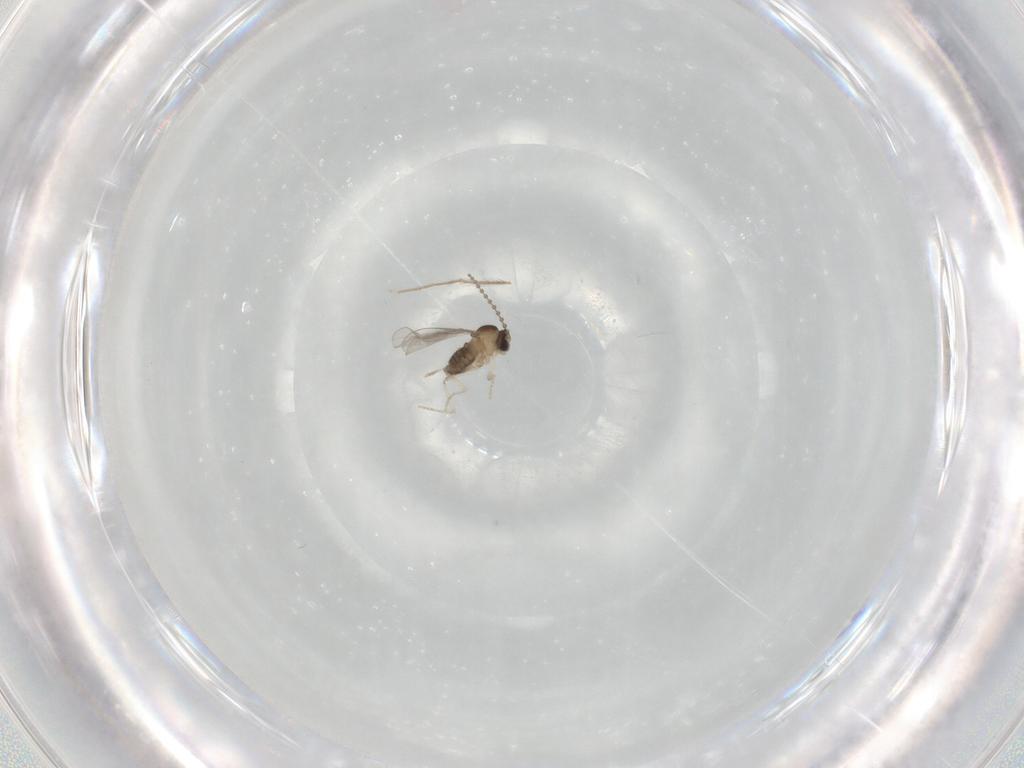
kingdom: Animalia
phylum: Arthropoda
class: Insecta
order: Diptera
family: Cecidomyiidae
